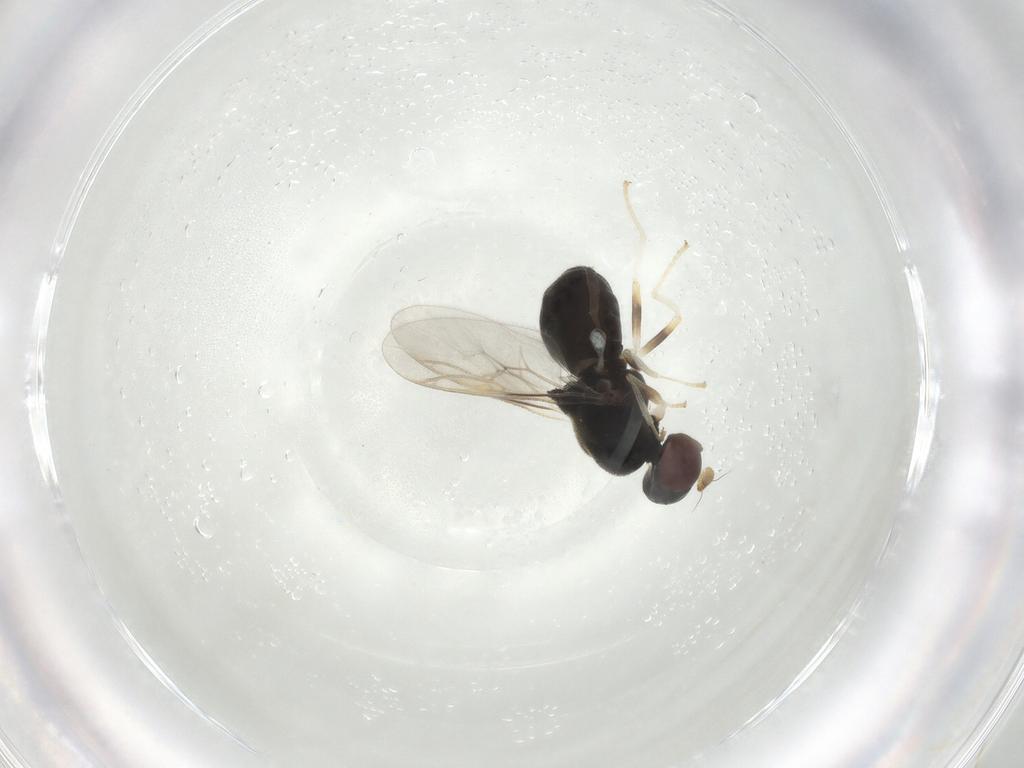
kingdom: Animalia
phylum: Arthropoda
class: Insecta
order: Diptera
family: Stratiomyidae
